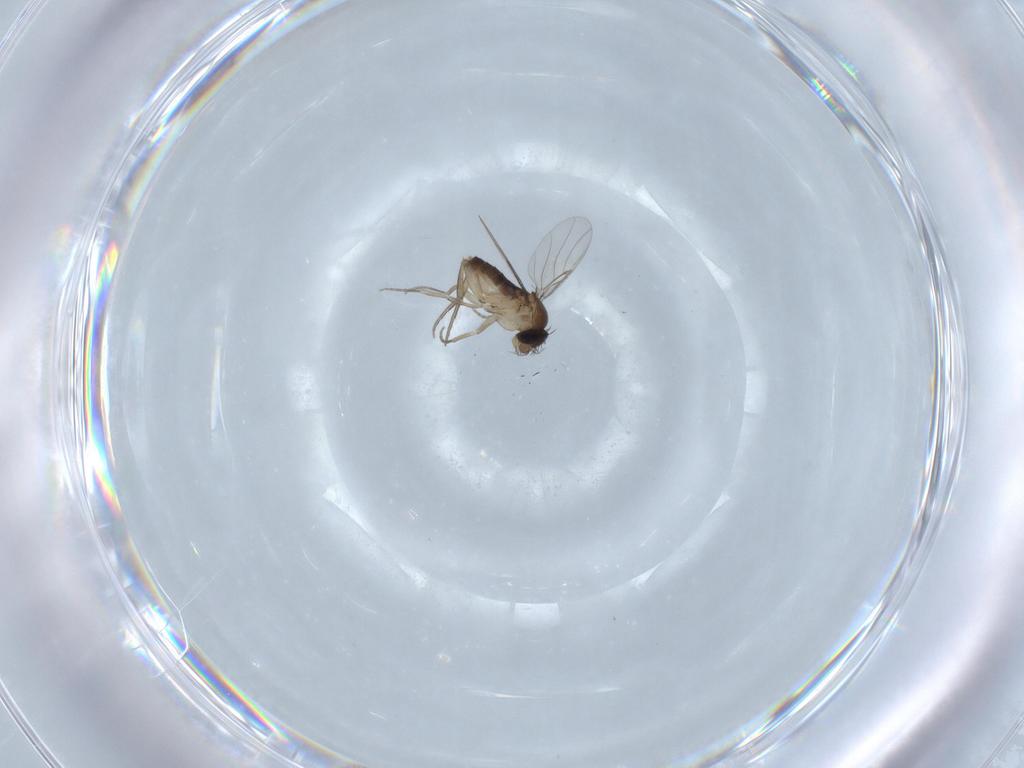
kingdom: Animalia
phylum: Arthropoda
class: Insecta
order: Diptera
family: Phoridae
